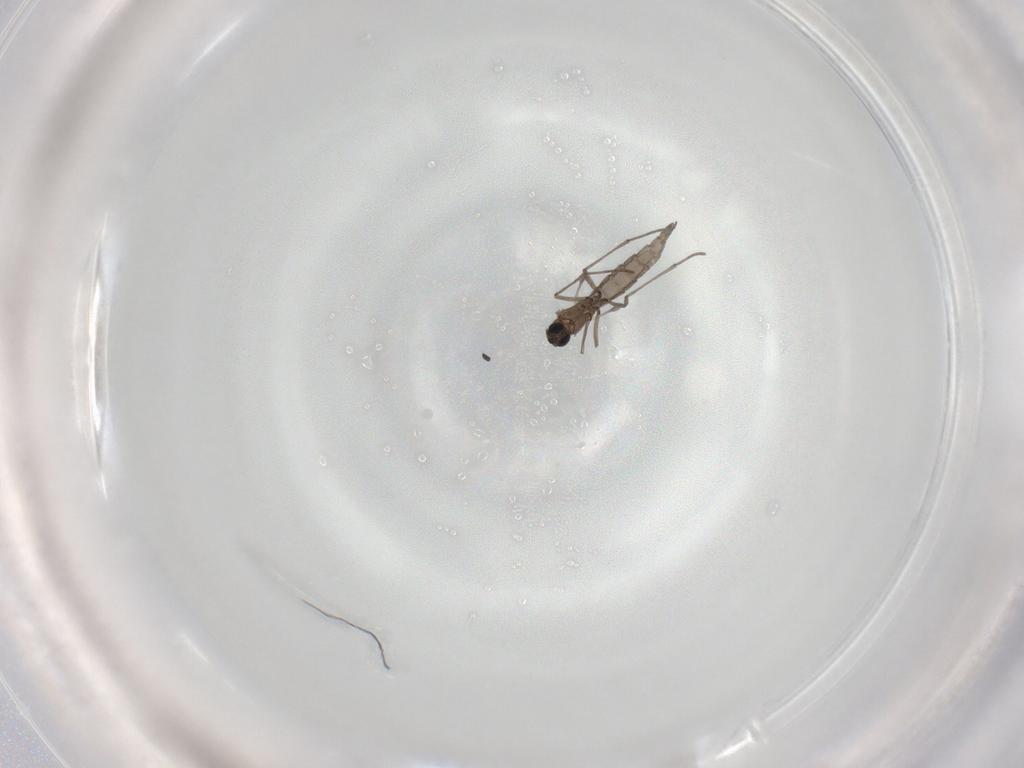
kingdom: Animalia
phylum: Arthropoda
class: Insecta
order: Diptera
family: Sciaridae
